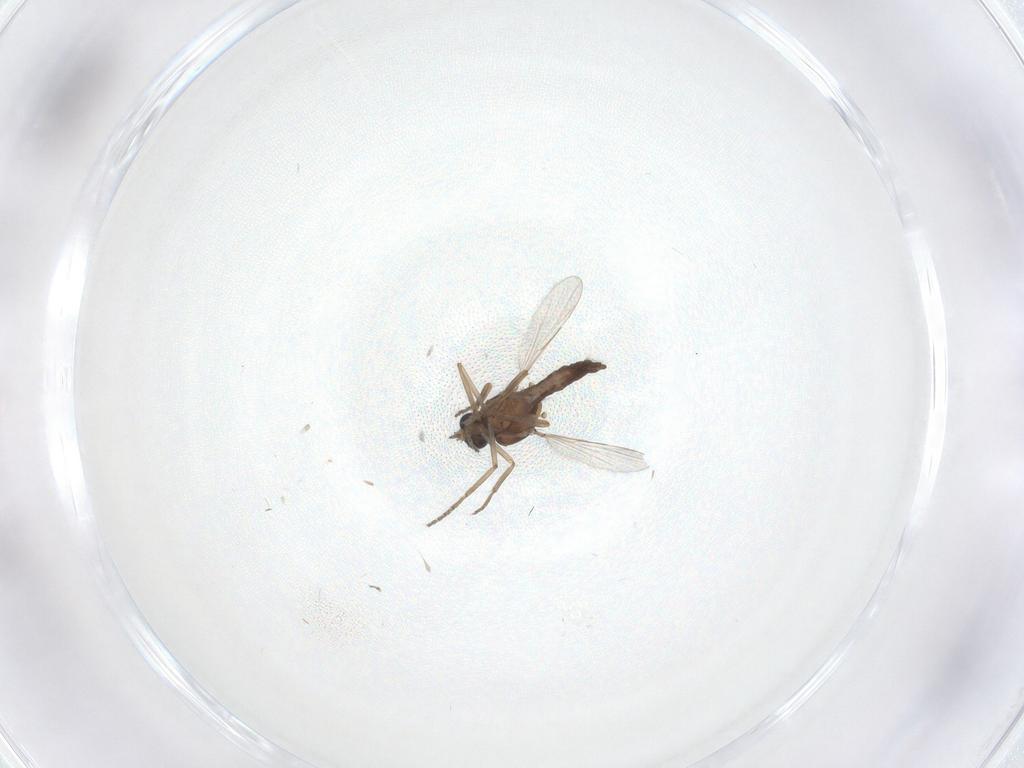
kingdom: Animalia
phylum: Arthropoda
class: Insecta
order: Diptera
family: Ceratopogonidae
